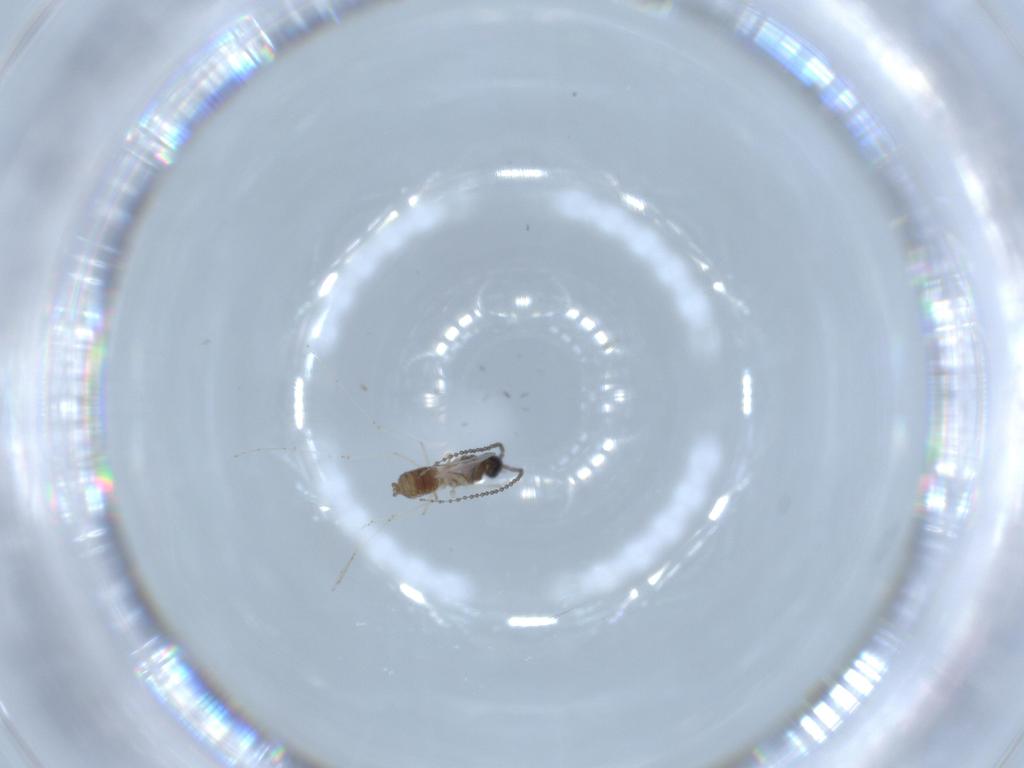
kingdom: Animalia
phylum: Arthropoda
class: Insecta
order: Diptera
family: Cecidomyiidae
